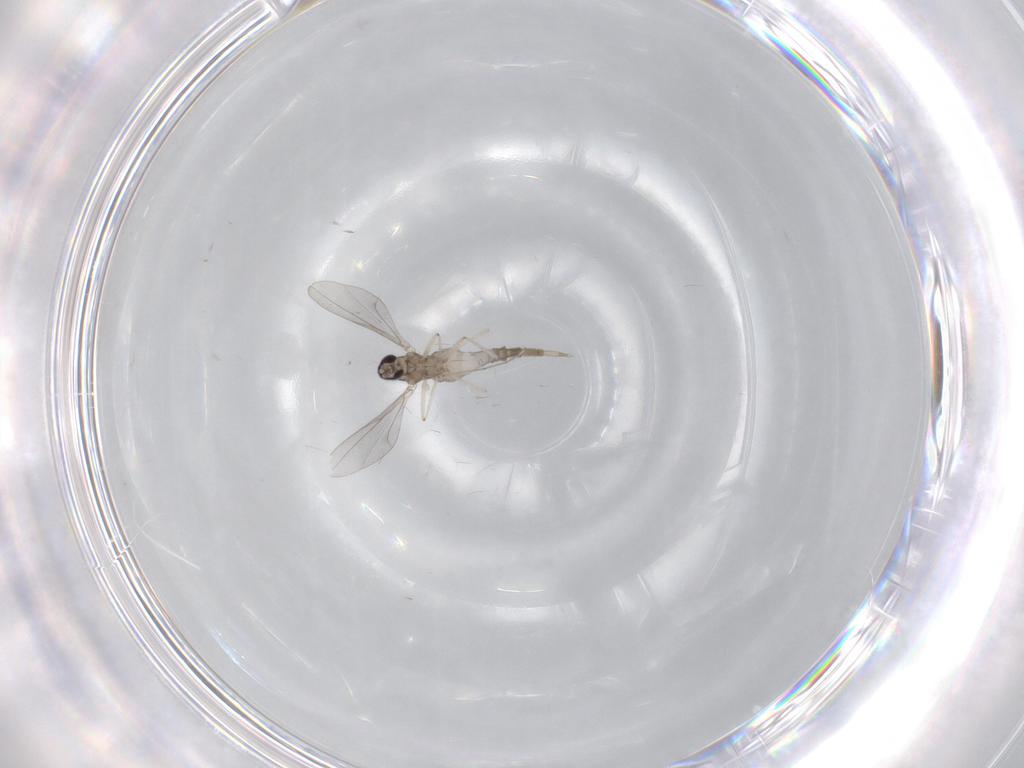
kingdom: Animalia
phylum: Arthropoda
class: Insecta
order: Diptera
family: Cecidomyiidae
